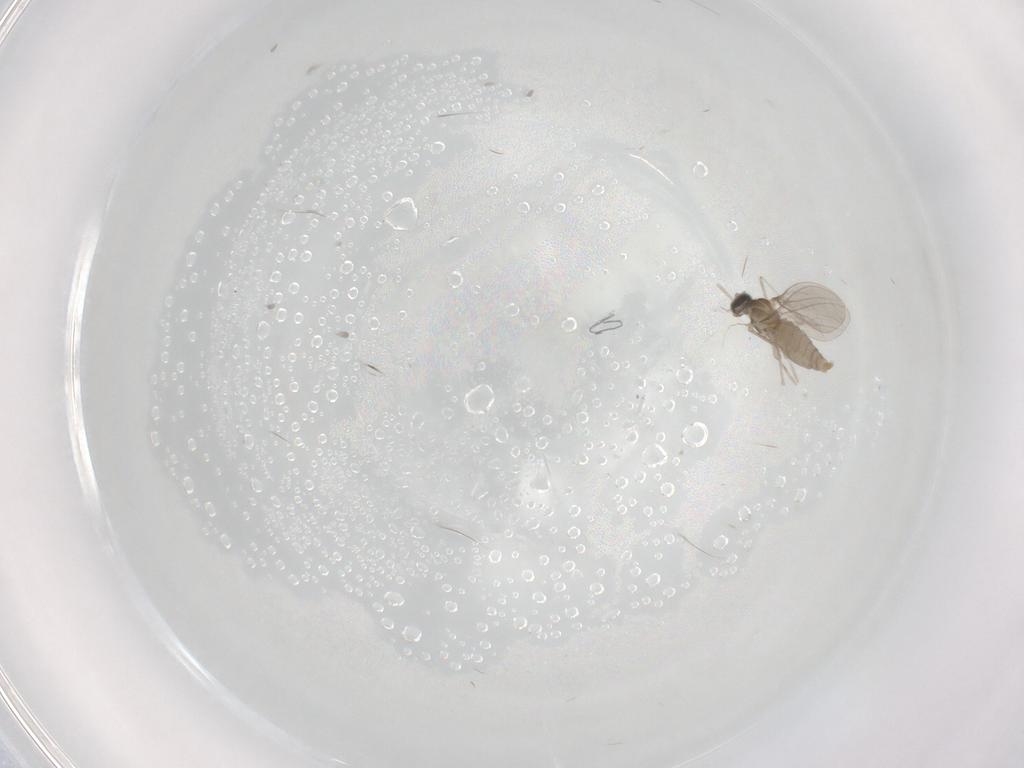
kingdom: Animalia
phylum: Arthropoda
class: Insecta
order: Diptera
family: Cecidomyiidae
